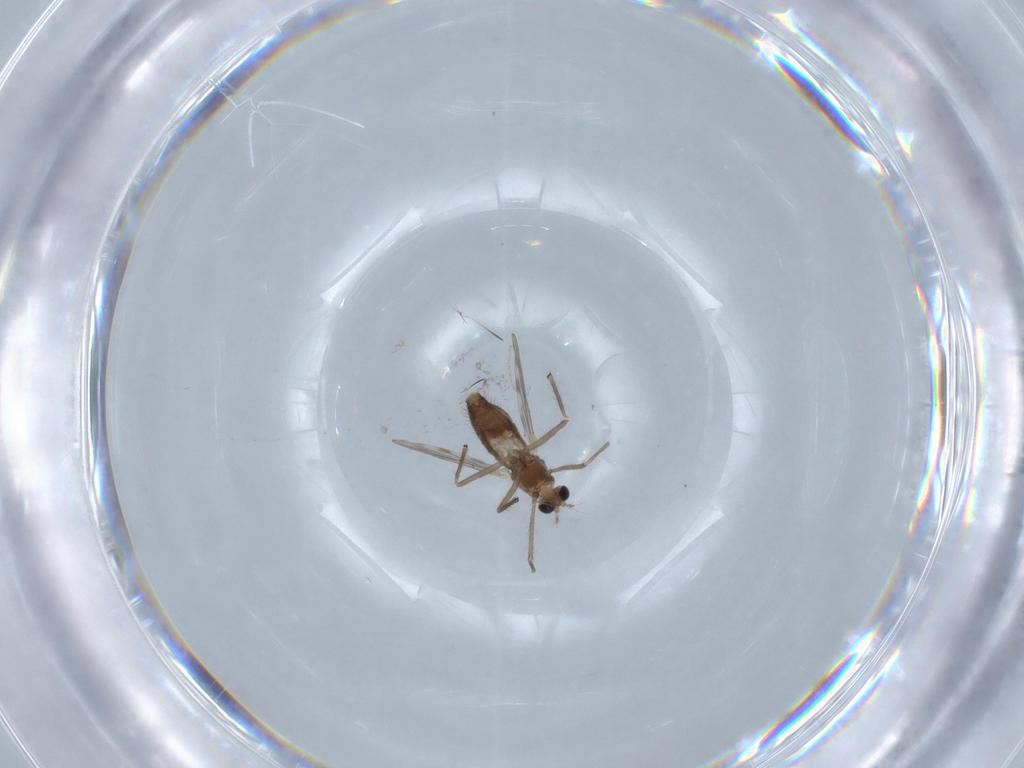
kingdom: Animalia
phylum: Arthropoda
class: Insecta
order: Diptera
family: Chironomidae
